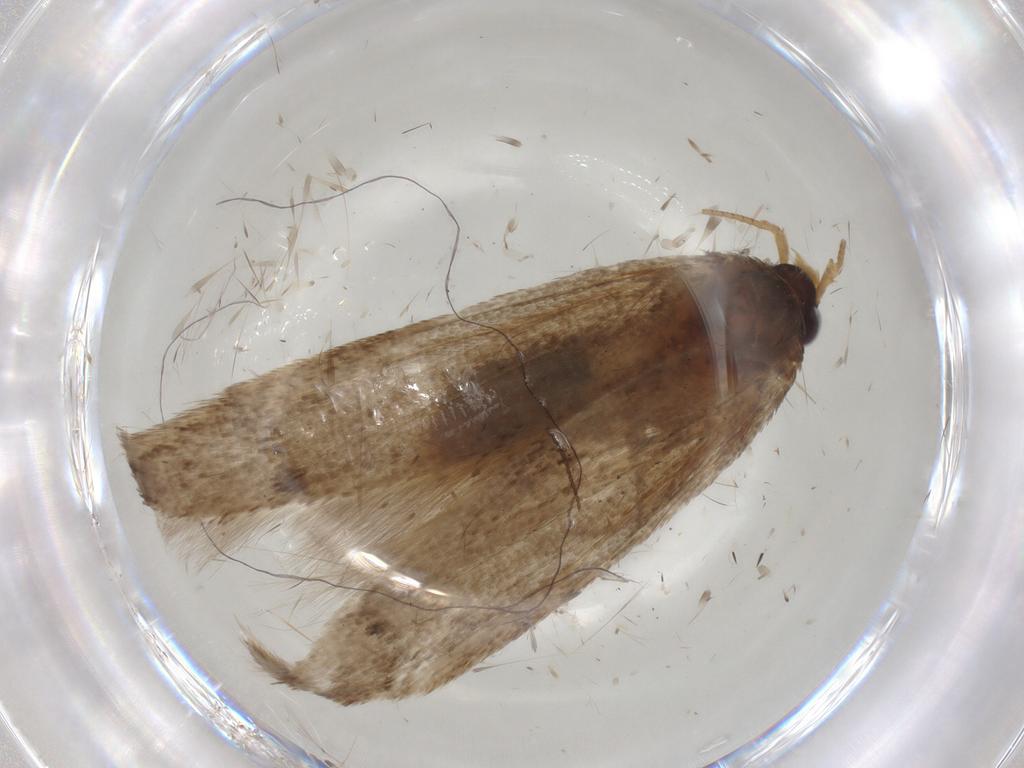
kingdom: Animalia
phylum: Arthropoda
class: Insecta
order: Lepidoptera
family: Blastobasidae
